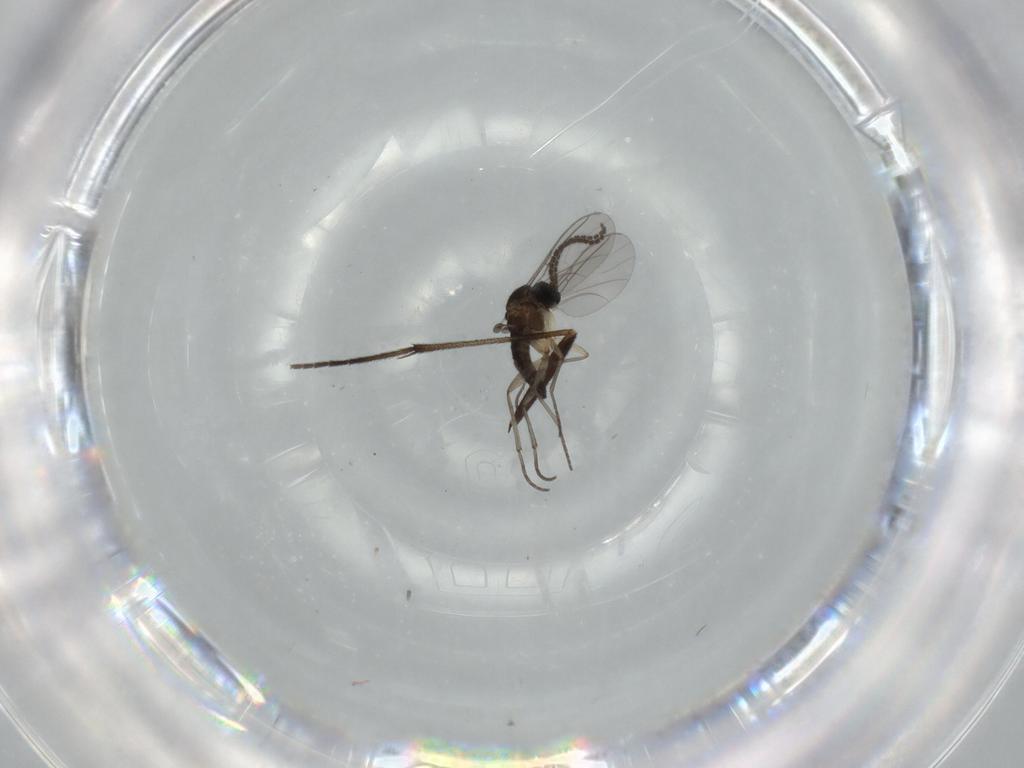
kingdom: Animalia
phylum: Arthropoda
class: Insecta
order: Diptera
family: Sciaridae
